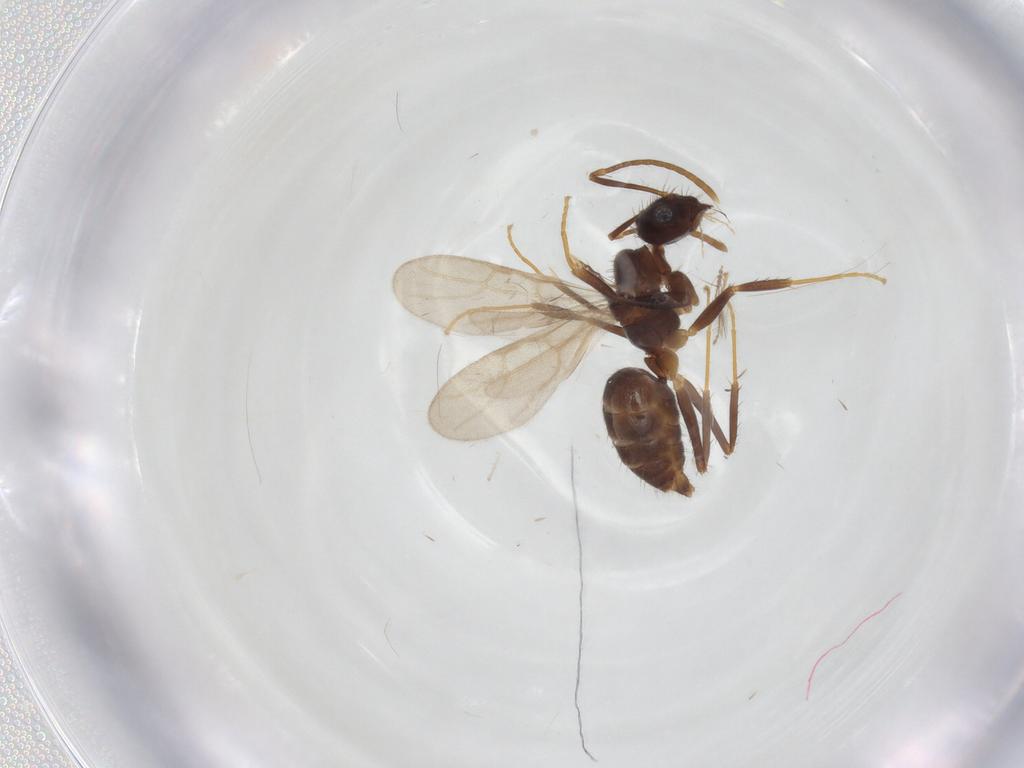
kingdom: Animalia
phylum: Arthropoda
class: Insecta
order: Hymenoptera
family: Formicidae
